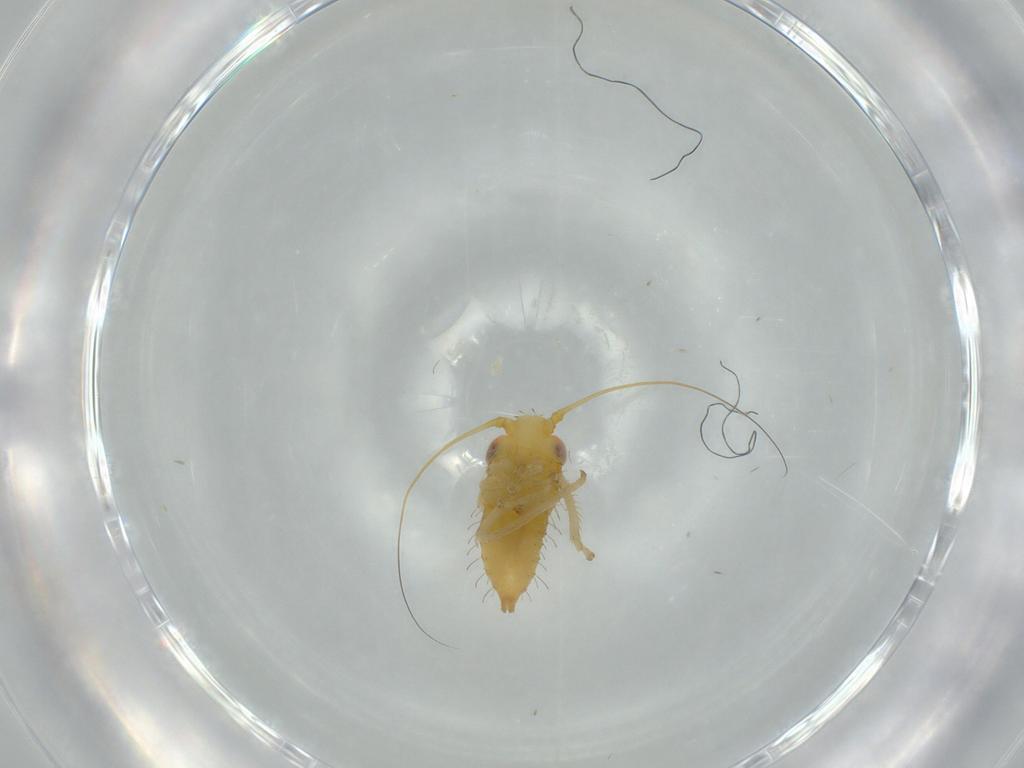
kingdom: Animalia
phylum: Arthropoda
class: Insecta
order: Hemiptera
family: Cicadellidae
